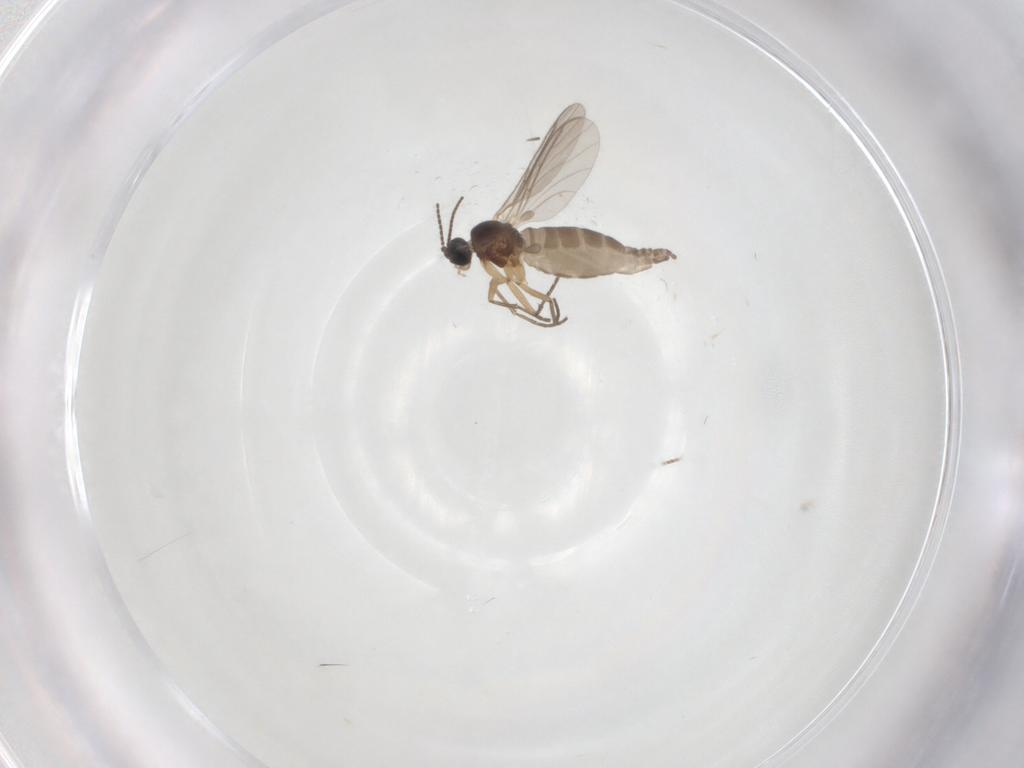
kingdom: Animalia
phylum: Arthropoda
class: Insecta
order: Diptera
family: Sciaridae
